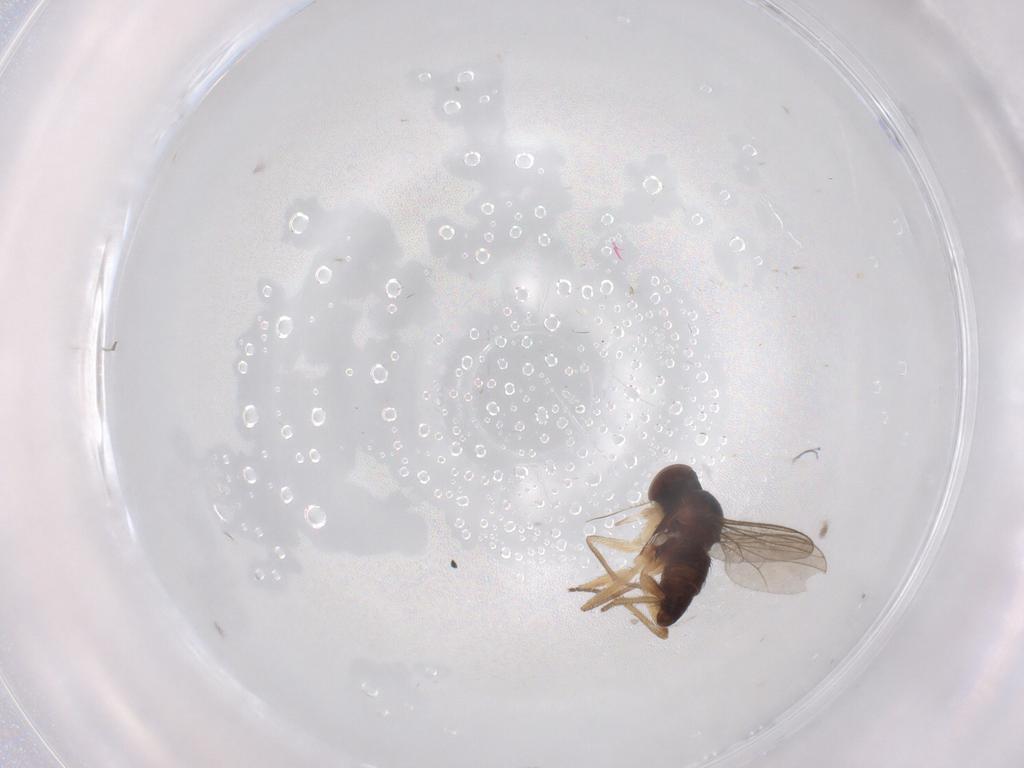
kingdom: Animalia
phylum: Arthropoda
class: Insecta
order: Diptera
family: Dolichopodidae
